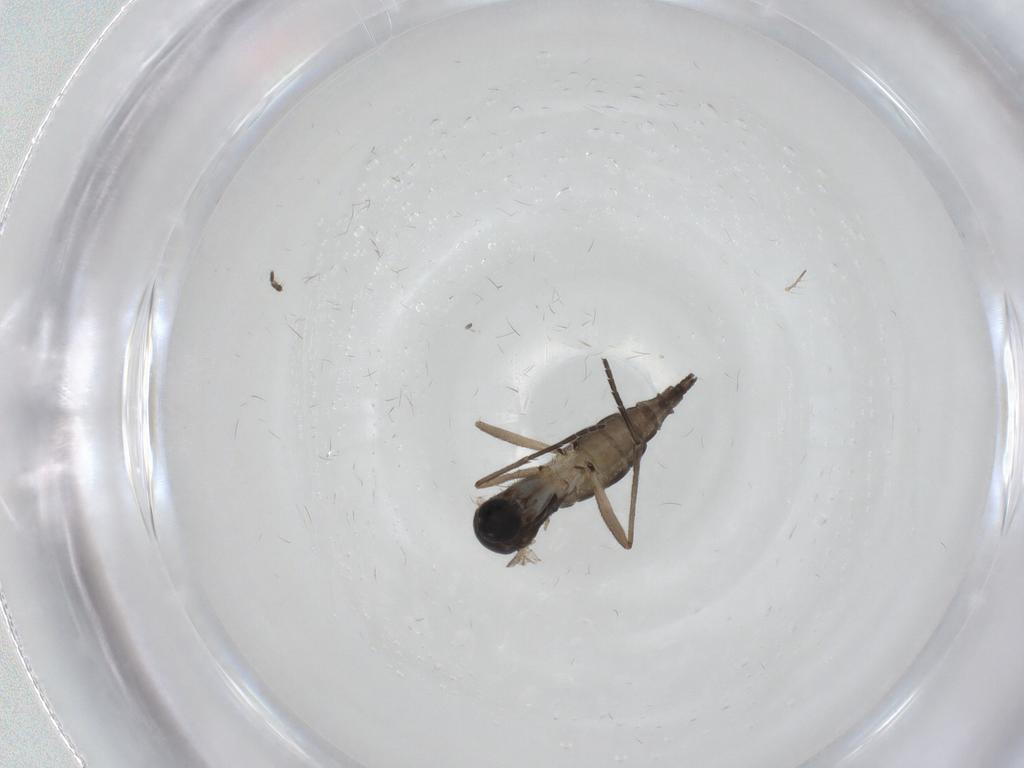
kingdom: Animalia
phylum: Arthropoda
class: Insecta
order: Diptera
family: Sciaridae
